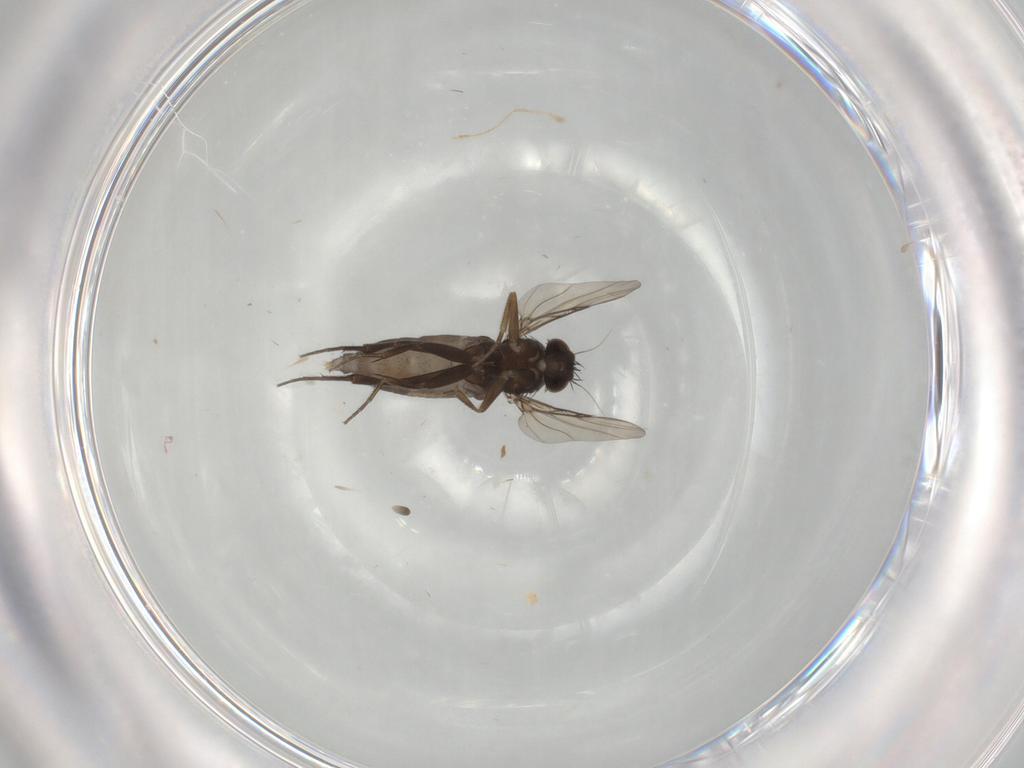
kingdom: Animalia
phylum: Arthropoda
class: Insecta
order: Diptera
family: Phoridae
